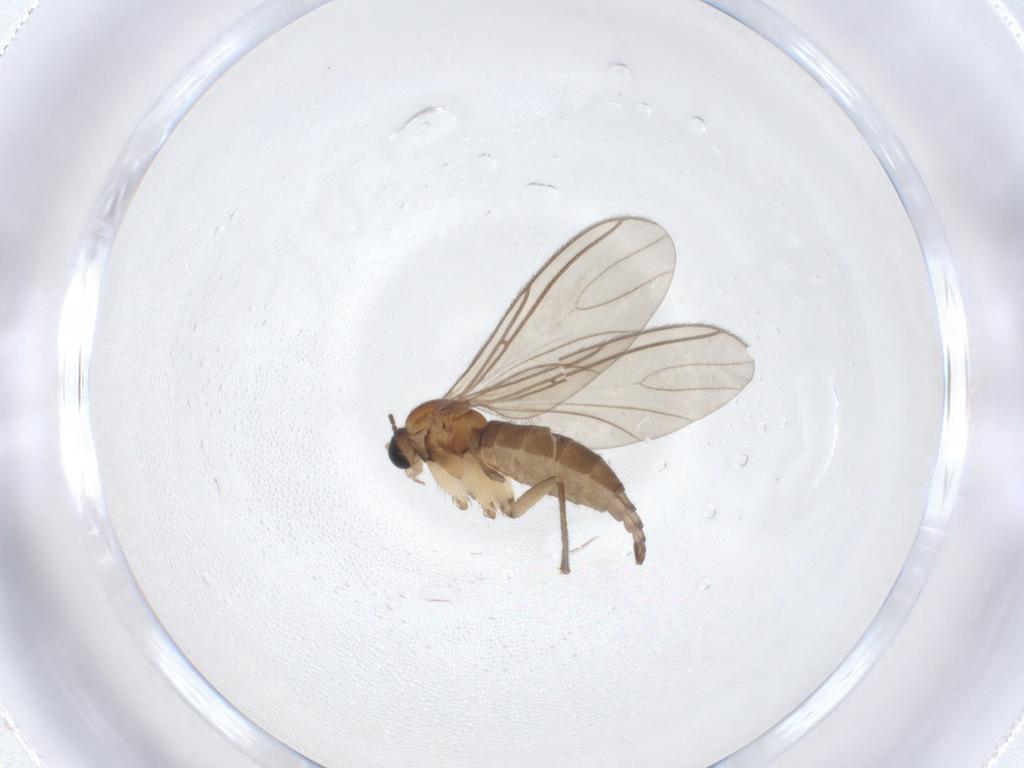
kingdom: Animalia
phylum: Arthropoda
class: Insecta
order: Diptera
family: Sciaridae
